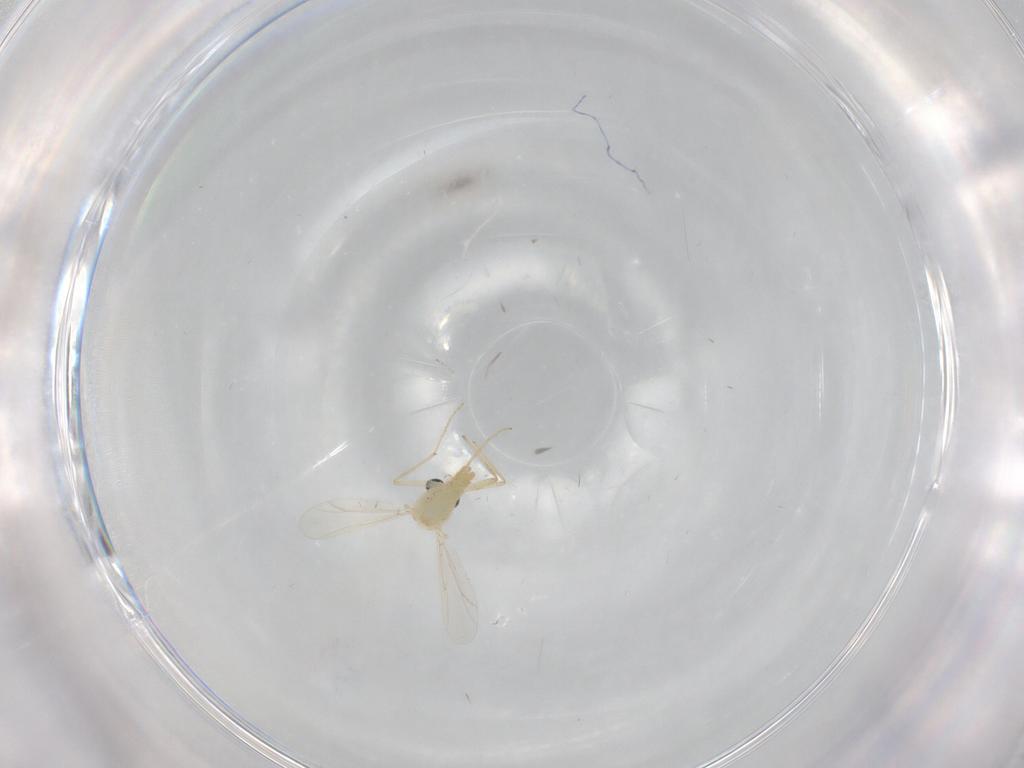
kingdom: Animalia
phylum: Arthropoda
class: Insecta
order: Diptera
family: Chironomidae
